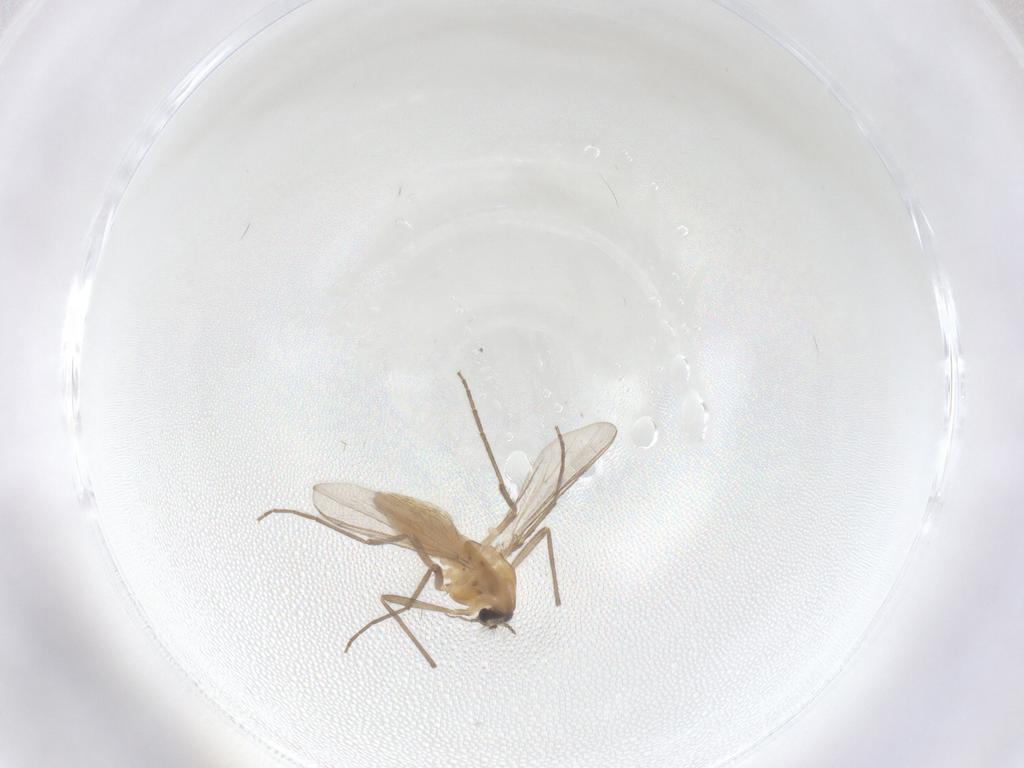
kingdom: Animalia
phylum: Arthropoda
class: Insecta
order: Diptera
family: Chironomidae
